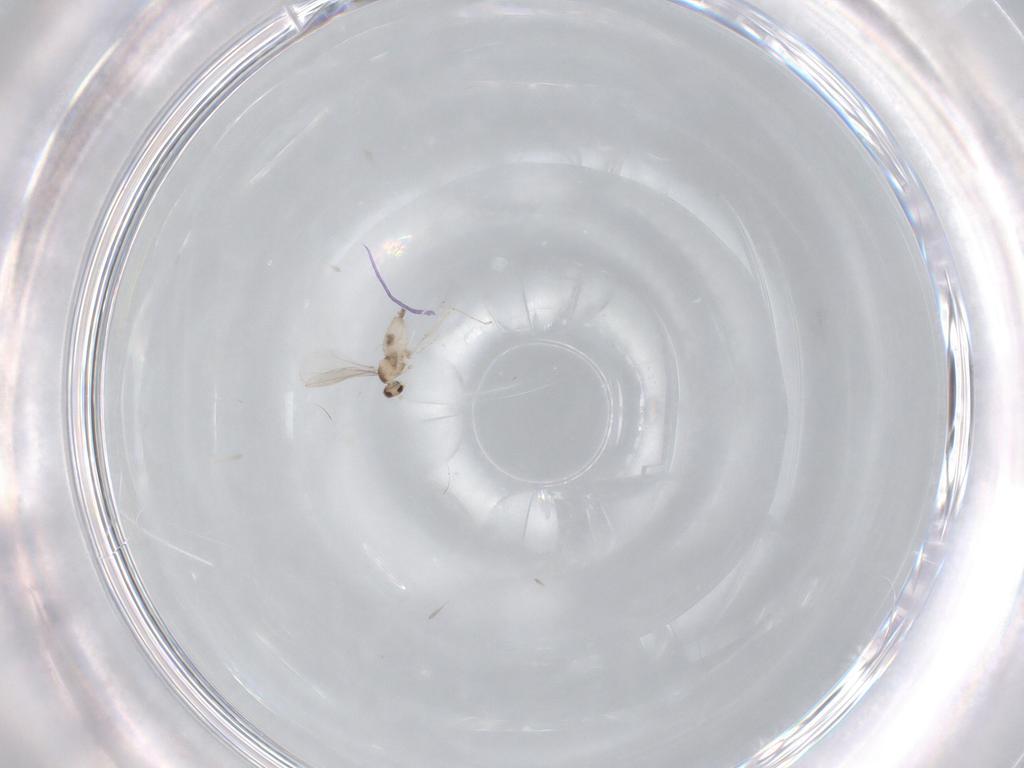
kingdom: Animalia
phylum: Arthropoda
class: Insecta
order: Diptera
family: Cecidomyiidae
